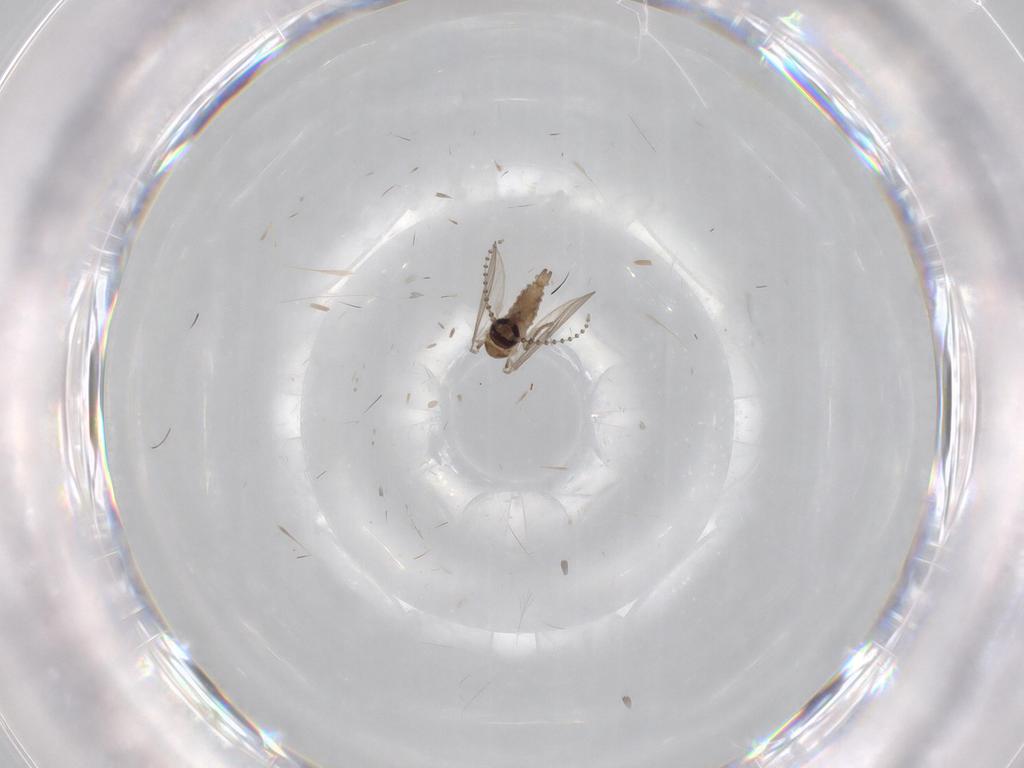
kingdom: Animalia
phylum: Arthropoda
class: Insecta
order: Diptera
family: Psychodidae
